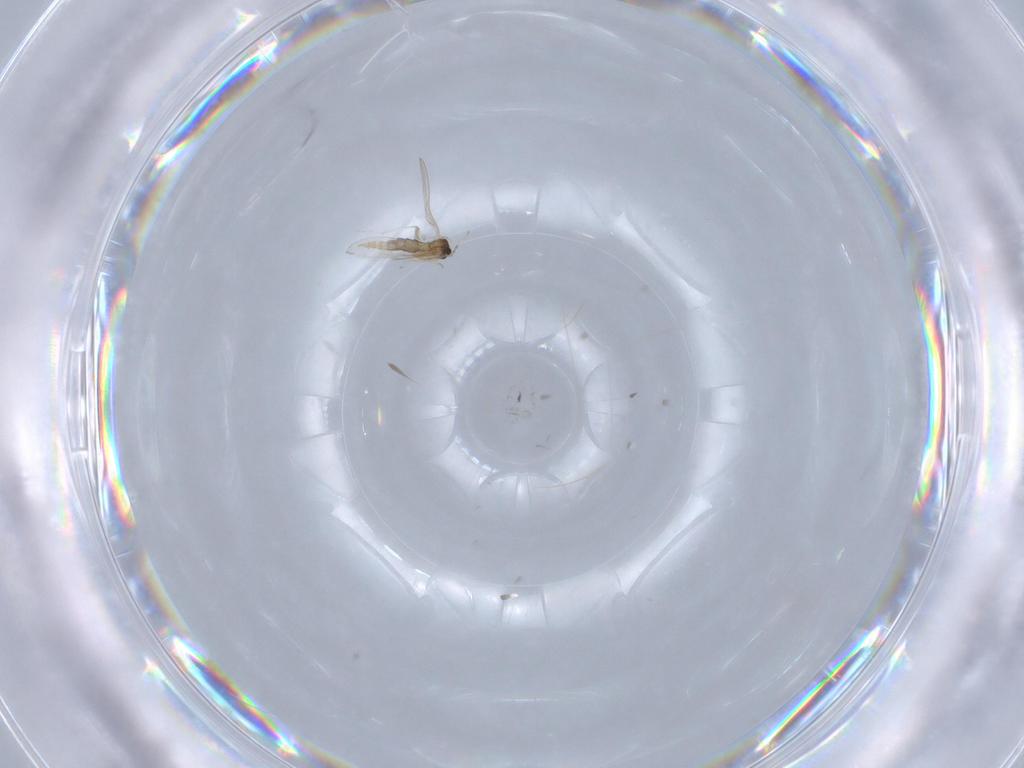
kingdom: Animalia
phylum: Arthropoda
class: Insecta
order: Diptera
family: Cecidomyiidae
